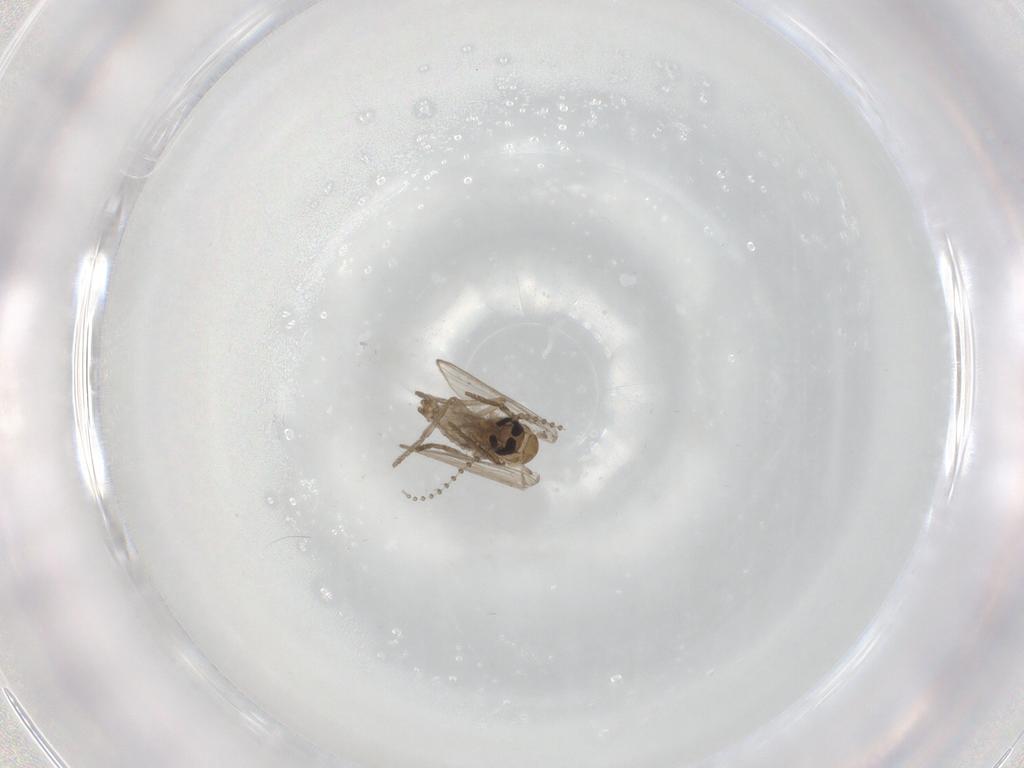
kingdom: Animalia
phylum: Arthropoda
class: Insecta
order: Diptera
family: Psychodidae
